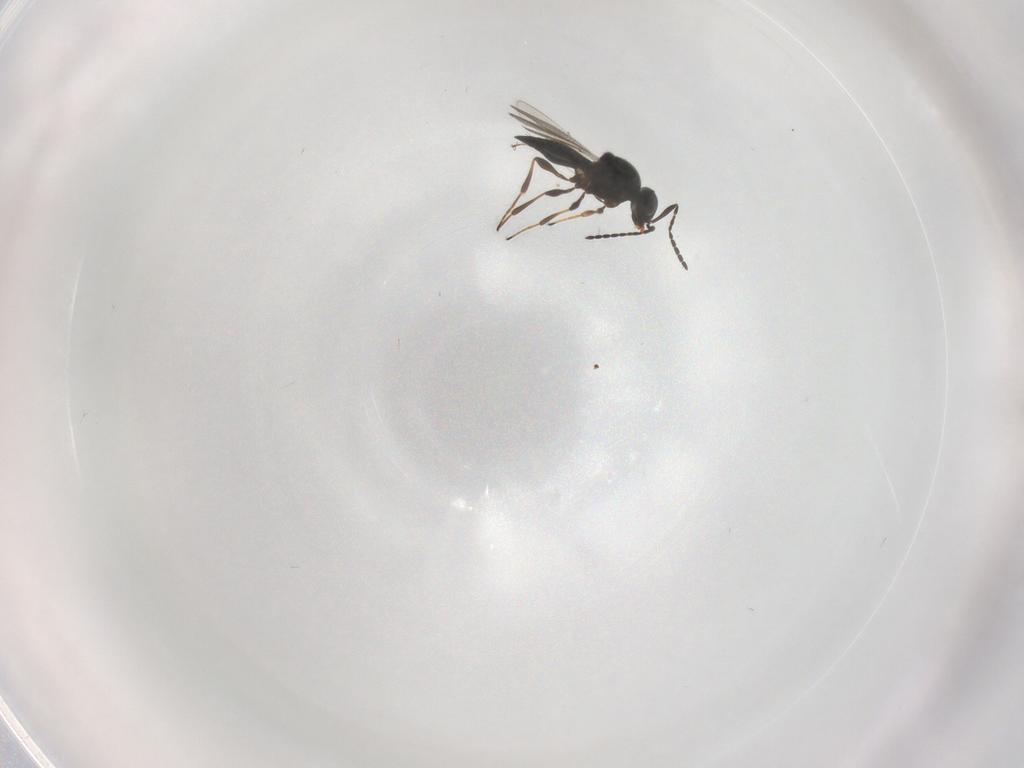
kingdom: Animalia
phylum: Arthropoda
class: Insecta
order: Hymenoptera
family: Platygastridae
